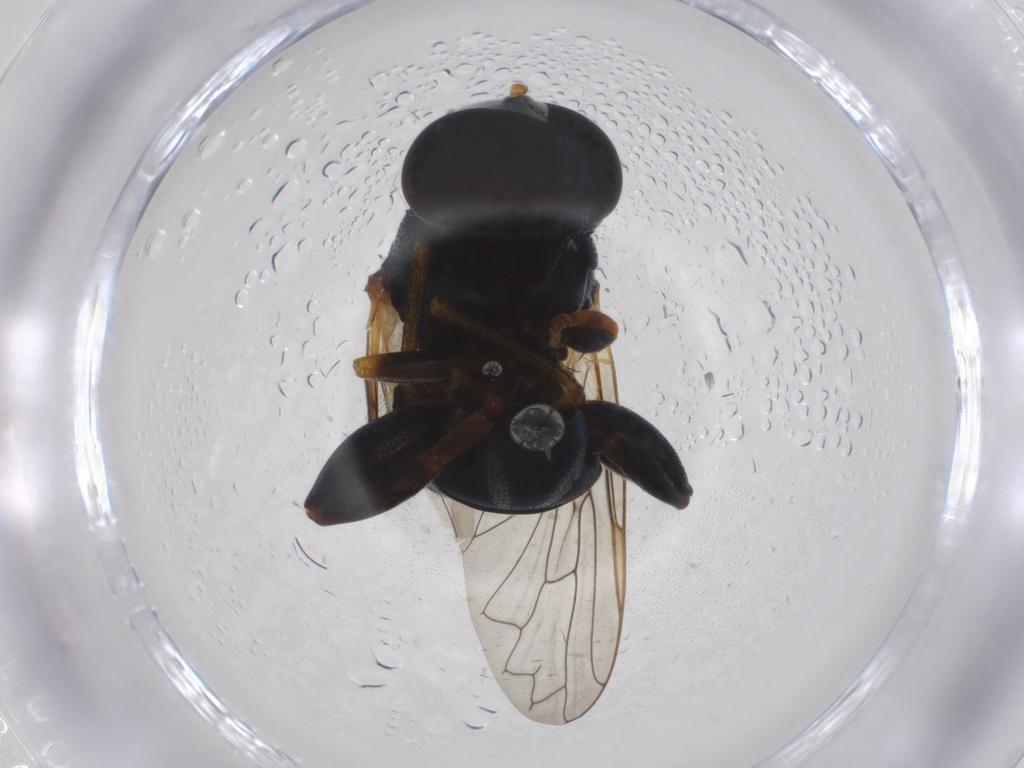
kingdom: Animalia
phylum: Arthropoda
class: Insecta
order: Diptera
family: Syrphidae
